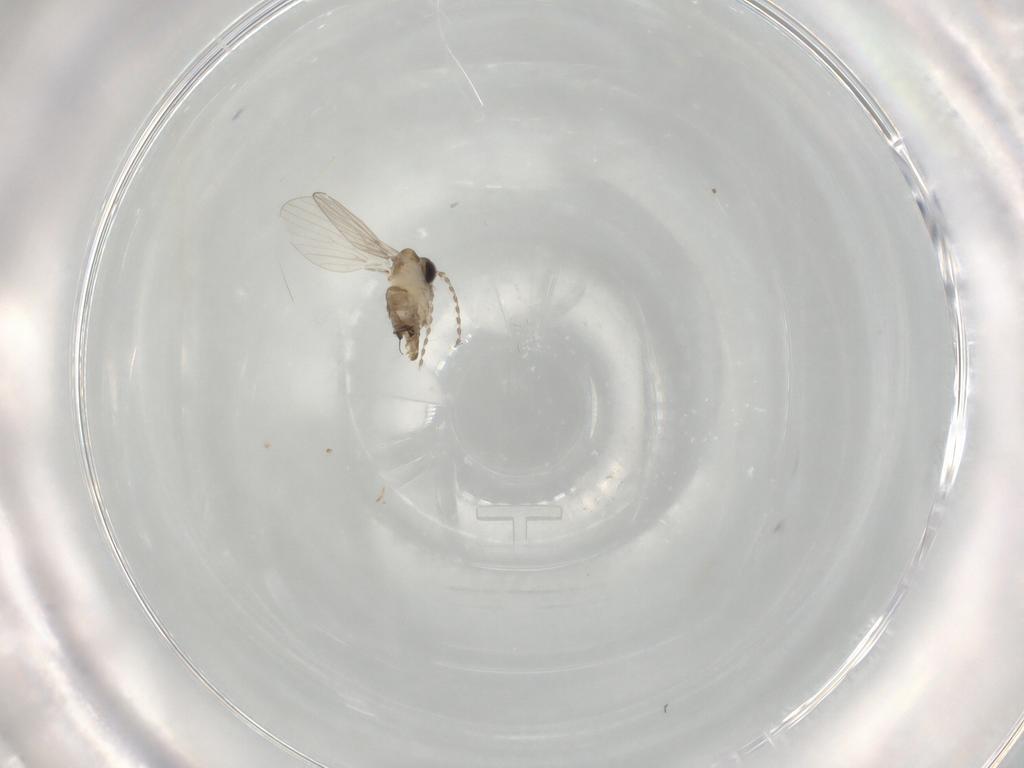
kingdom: Animalia
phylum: Arthropoda
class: Insecta
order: Diptera
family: Psychodidae
